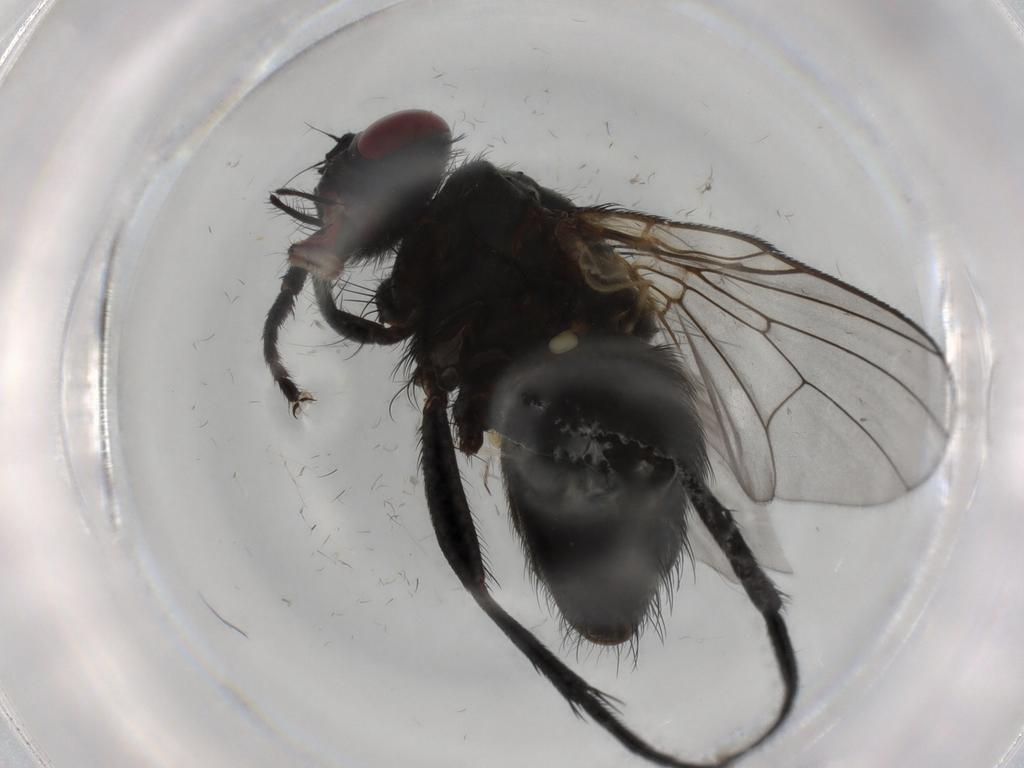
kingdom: Animalia
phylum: Arthropoda
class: Insecta
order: Diptera
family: Muscidae
